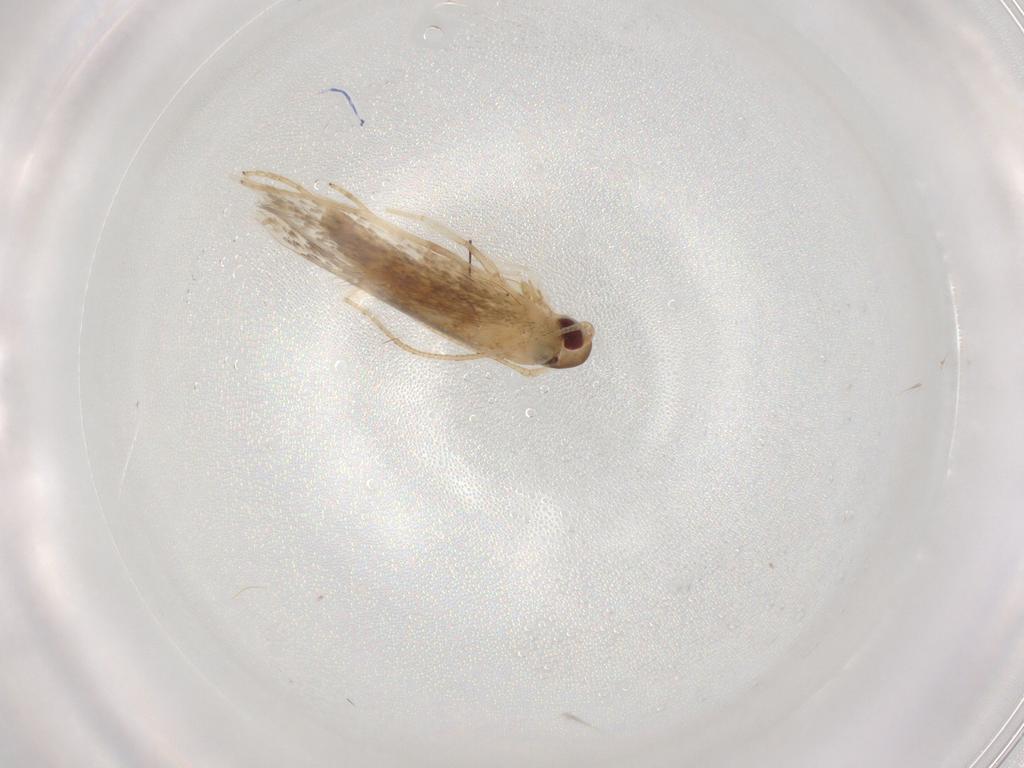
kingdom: Animalia
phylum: Arthropoda
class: Insecta
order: Lepidoptera
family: Cosmopterigidae
